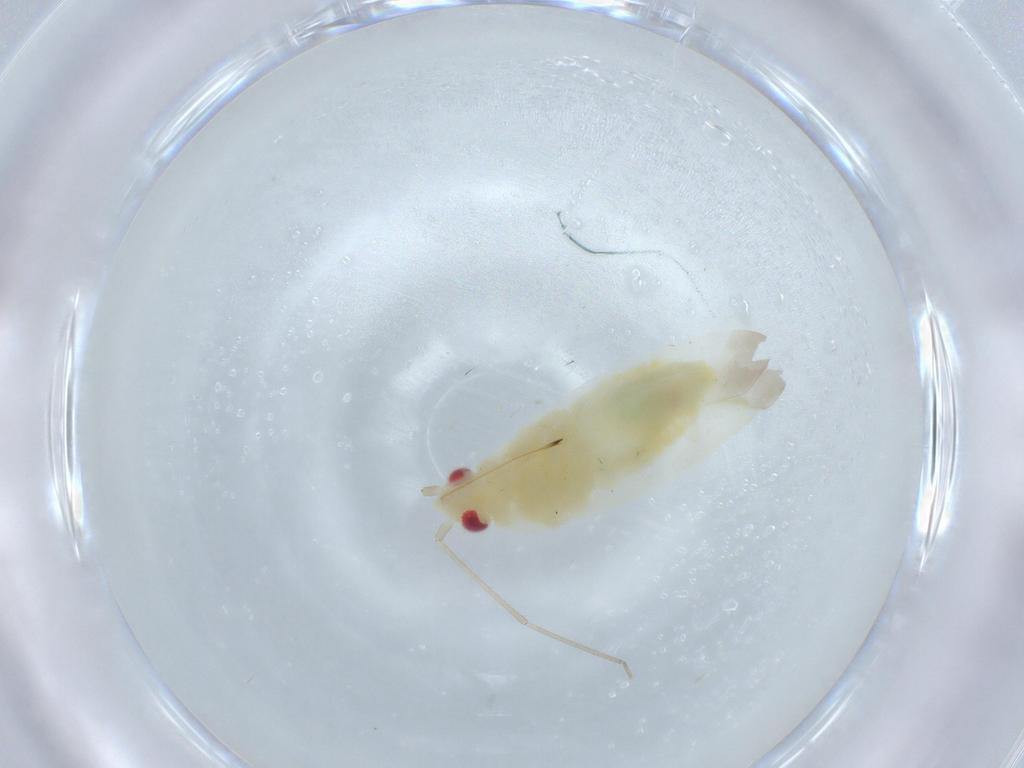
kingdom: Animalia
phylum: Arthropoda
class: Insecta
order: Hemiptera
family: Miridae
